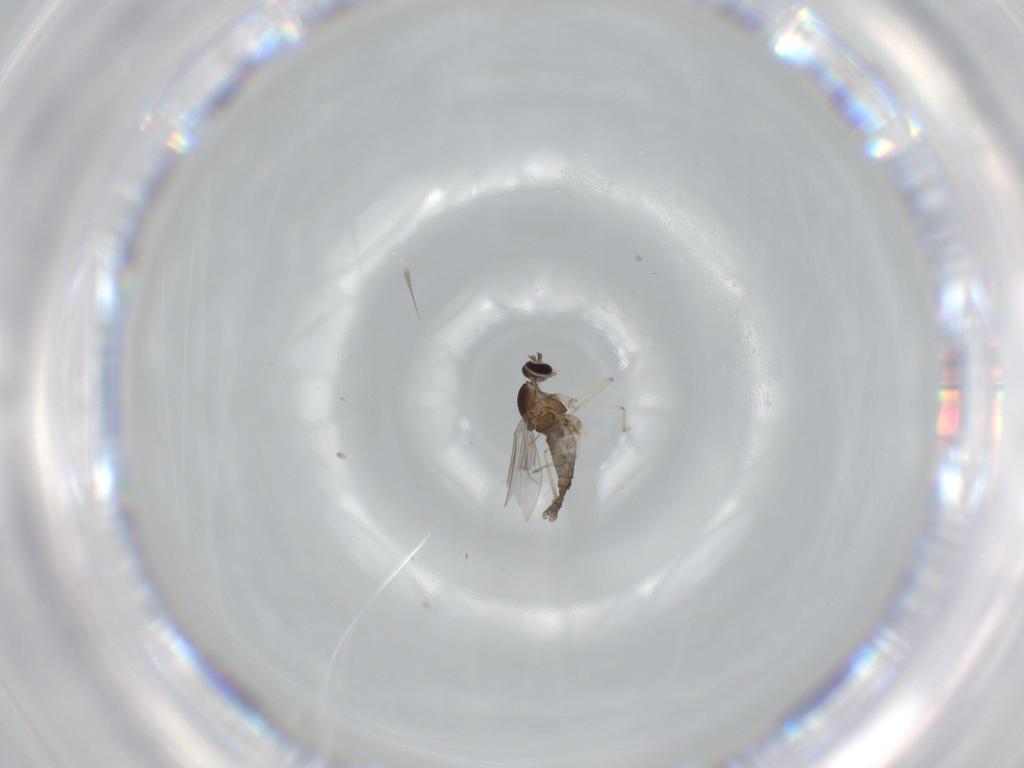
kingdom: Animalia
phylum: Arthropoda
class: Insecta
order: Diptera
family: Cecidomyiidae
